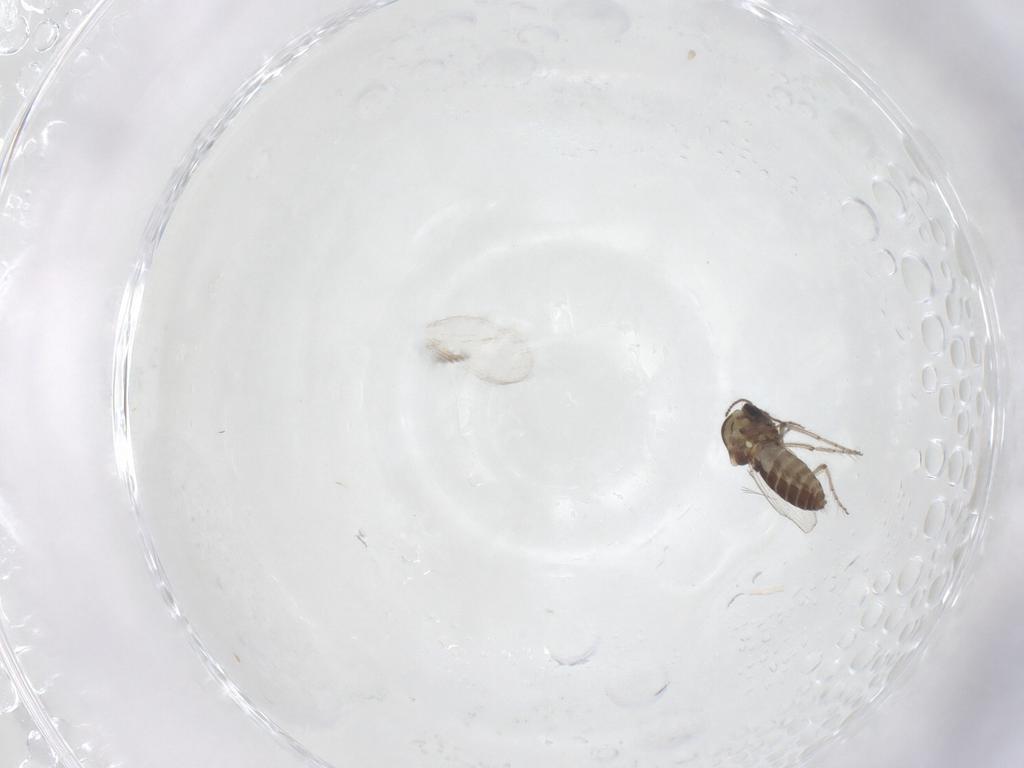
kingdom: Animalia
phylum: Arthropoda
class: Insecta
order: Diptera
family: Ceratopogonidae
